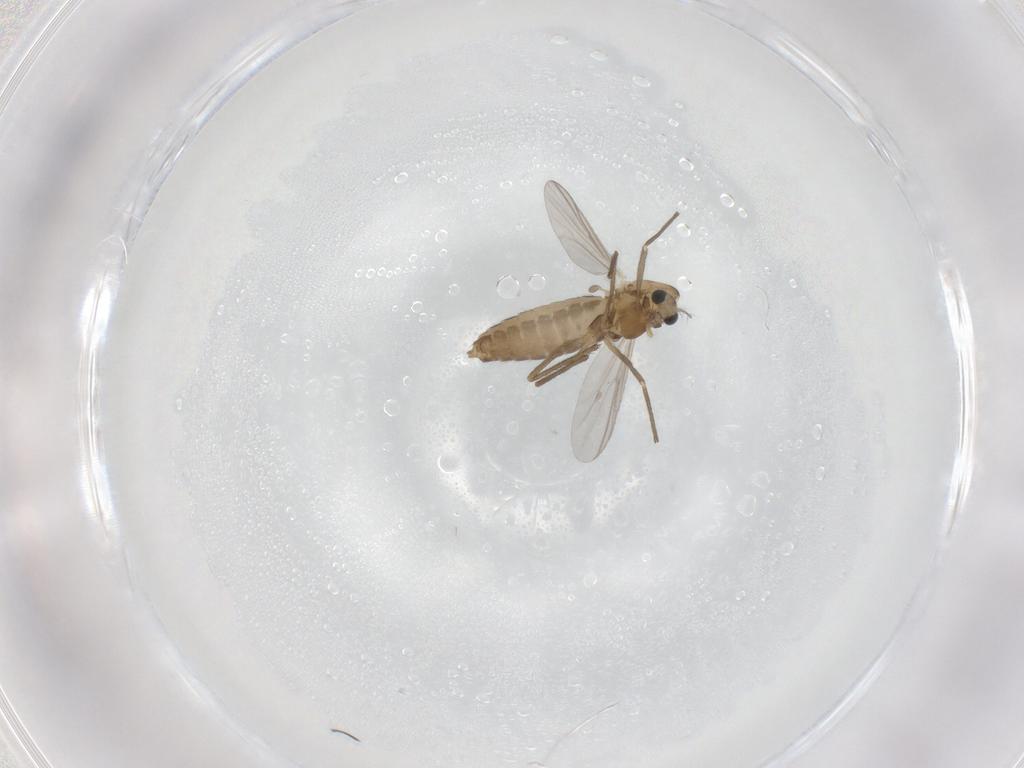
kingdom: Animalia
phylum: Arthropoda
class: Insecta
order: Diptera
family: Chironomidae
